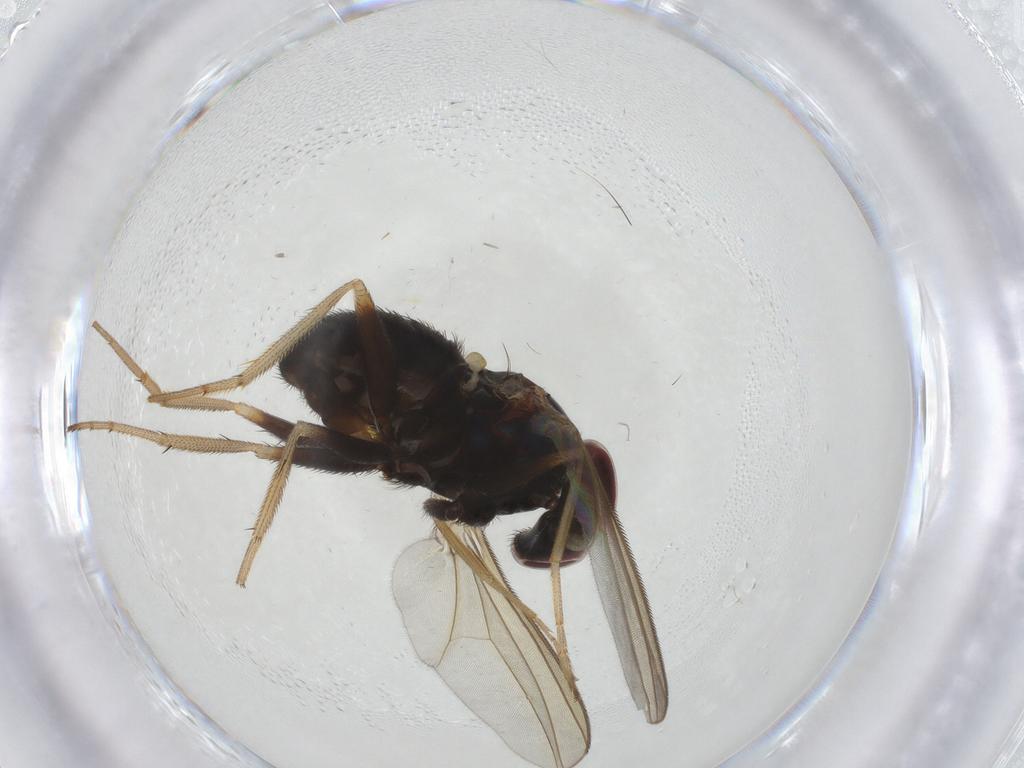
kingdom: Animalia
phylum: Arthropoda
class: Insecta
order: Diptera
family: Dolichopodidae
